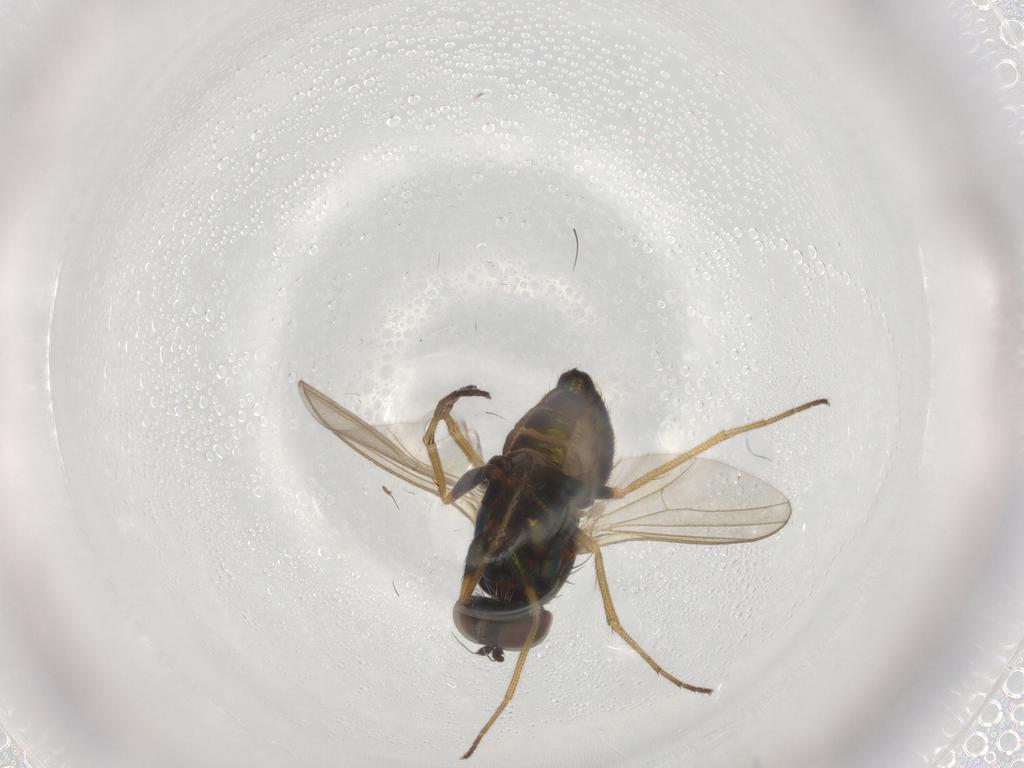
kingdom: Animalia
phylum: Arthropoda
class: Insecta
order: Diptera
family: Dolichopodidae
